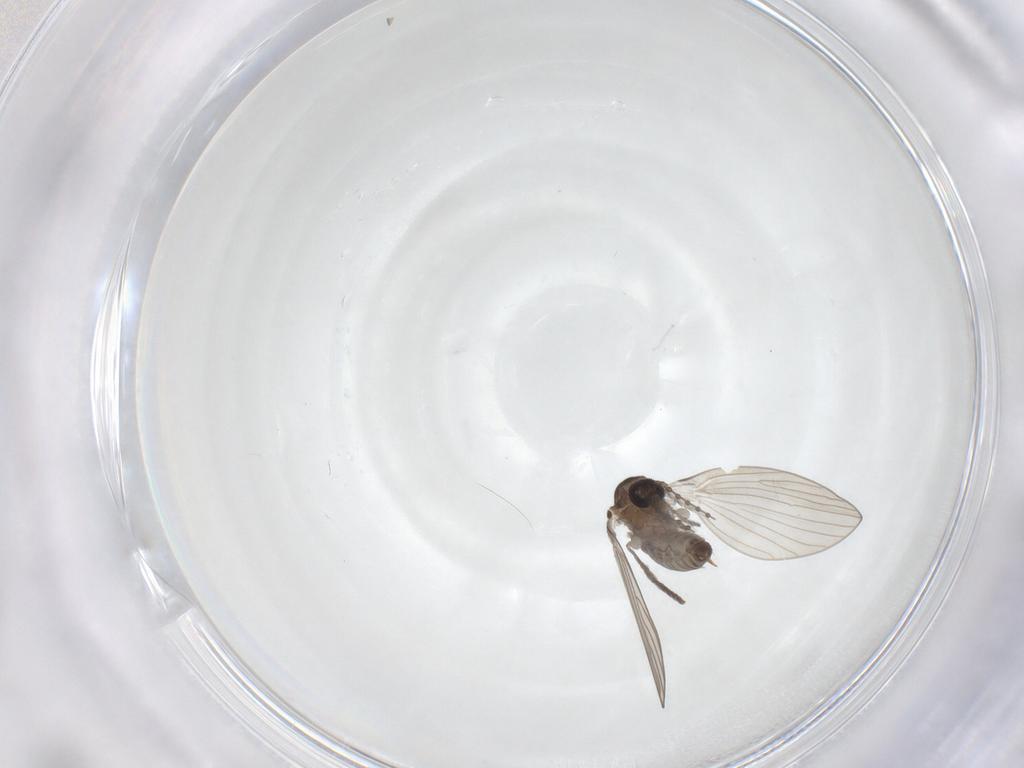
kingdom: Animalia
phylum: Arthropoda
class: Insecta
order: Diptera
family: Psychodidae
